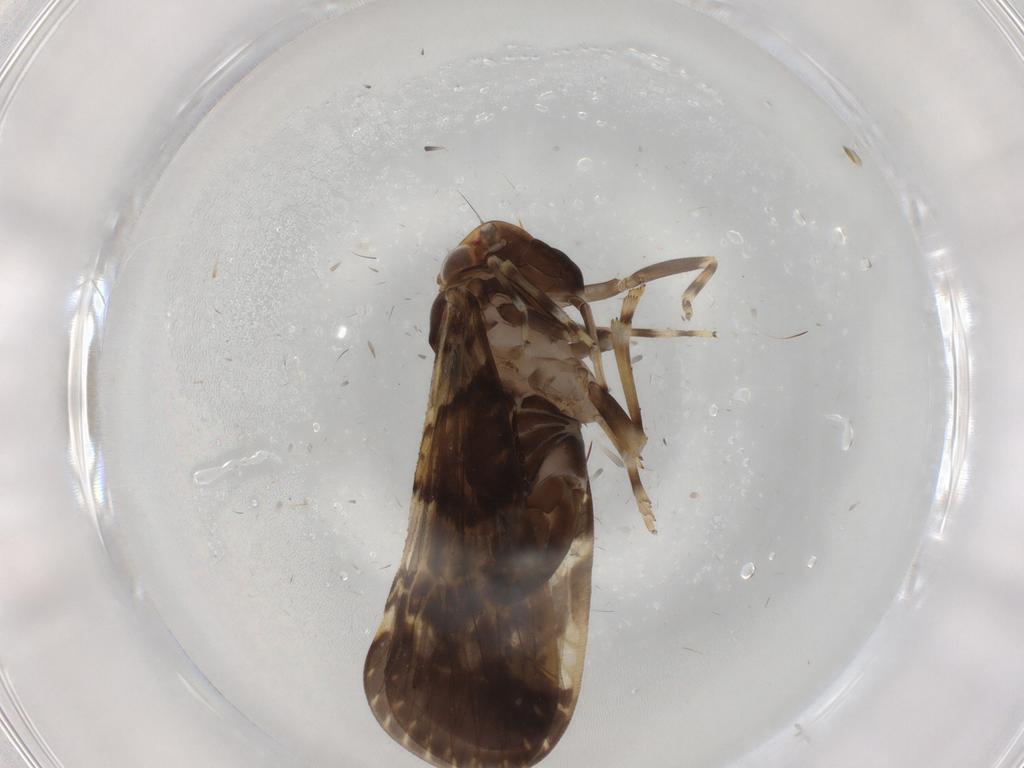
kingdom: Animalia
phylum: Arthropoda
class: Insecta
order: Hemiptera
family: Cixiidae
